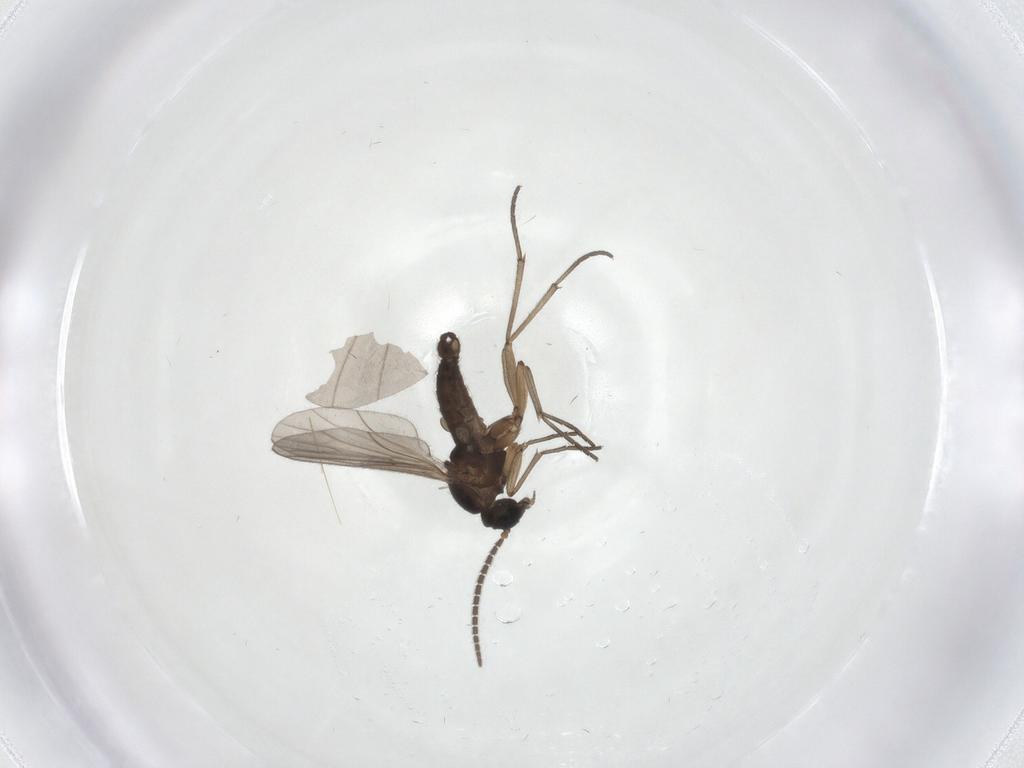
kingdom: Animalia
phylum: Arthropoda
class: Insecta
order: Diptera
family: Sciaridae
